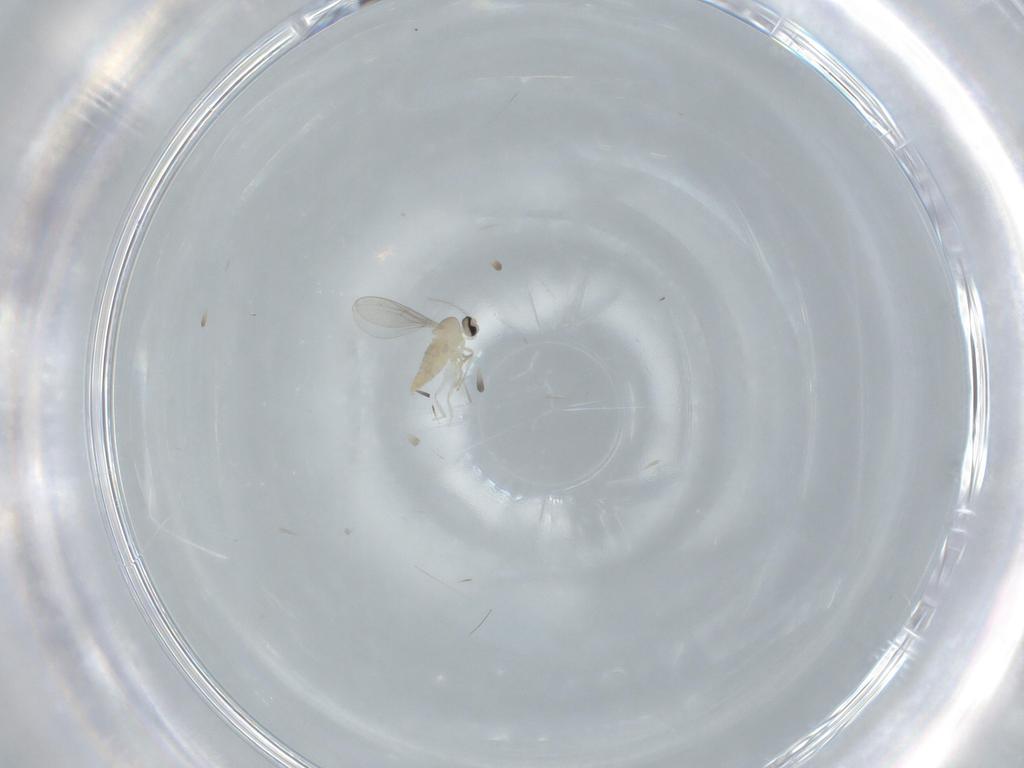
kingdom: Animalia
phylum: Arthropoda
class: Insecta
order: Diptera
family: Cecidomyiidae
